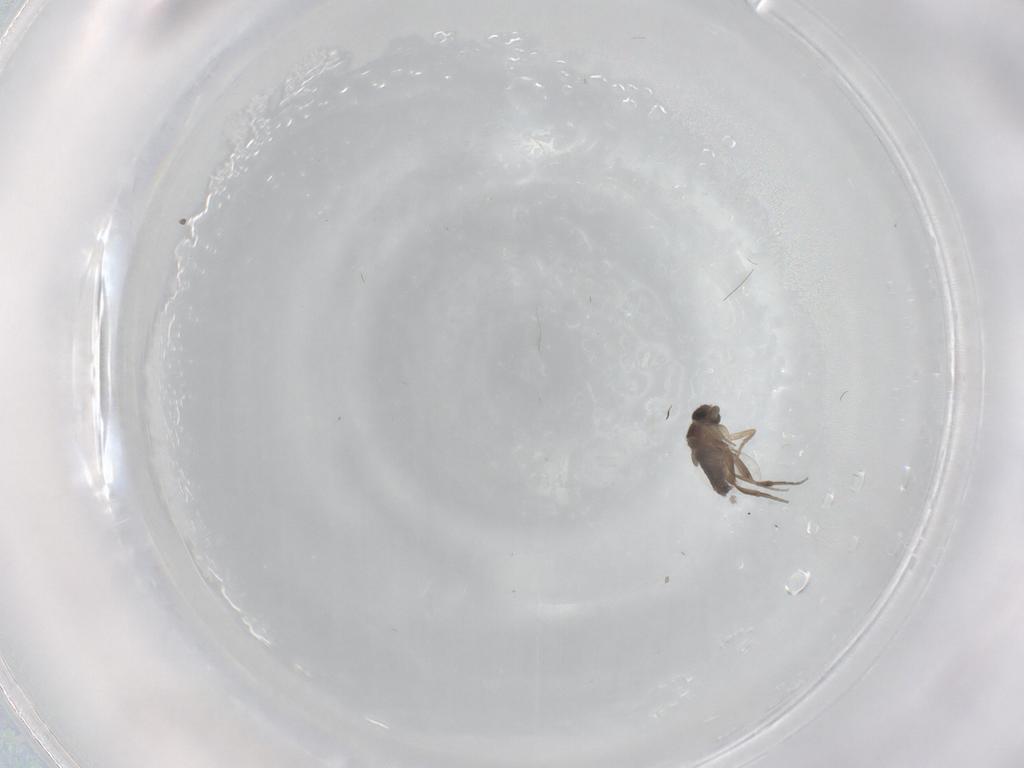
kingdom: Animalia
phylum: Arthropoda
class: Insecta
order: Diptera
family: Phoridae
